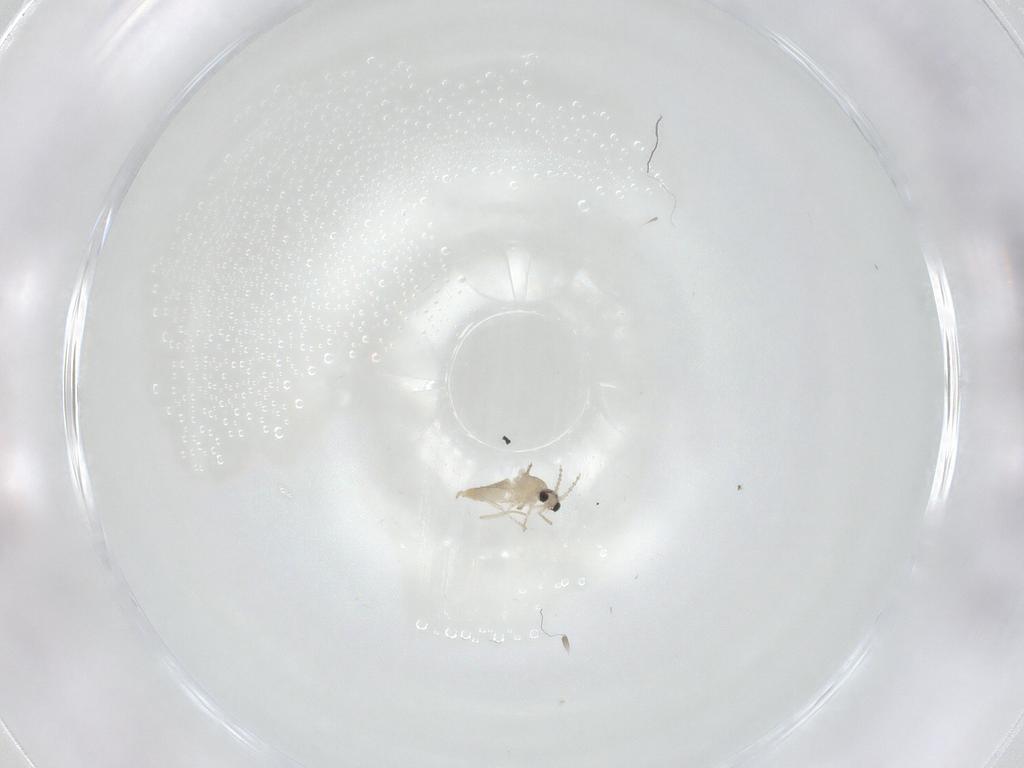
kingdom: Animalia
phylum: Arthropoda
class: Insecta
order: Diptera
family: Cecidomyiidae
